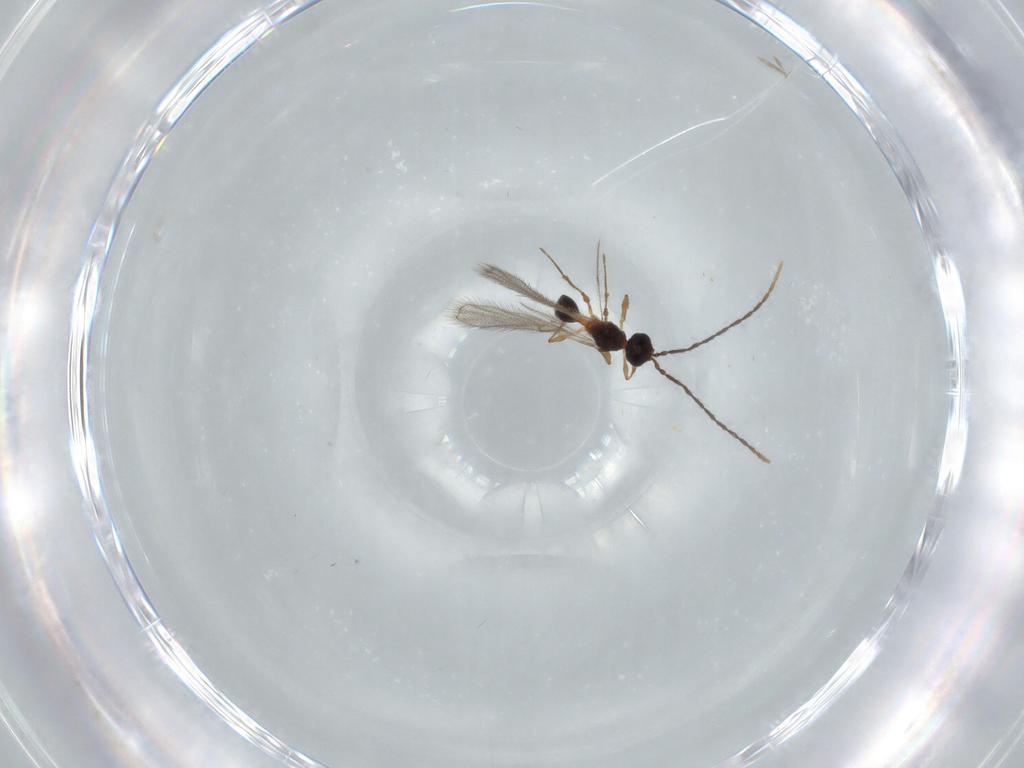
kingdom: Animalia
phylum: Arthropoda
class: Insecta
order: Hymenoptera
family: Diapriidae
